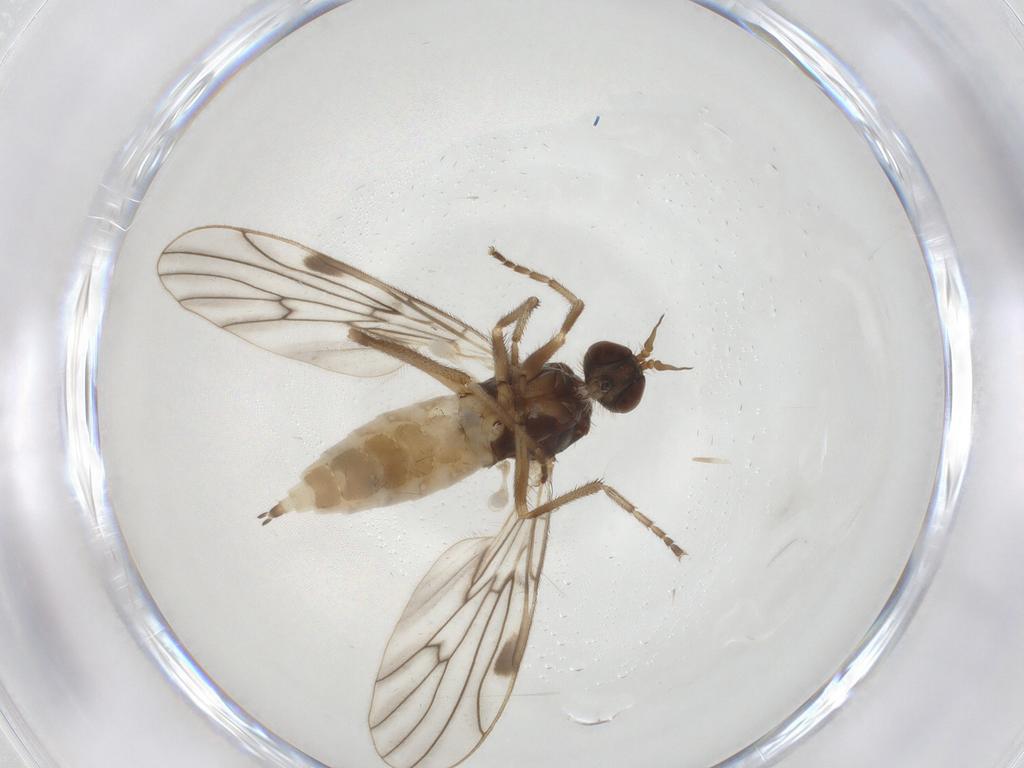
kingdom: Animalia
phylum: Arthropoda
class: Insecta
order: Diptera
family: Empididae
